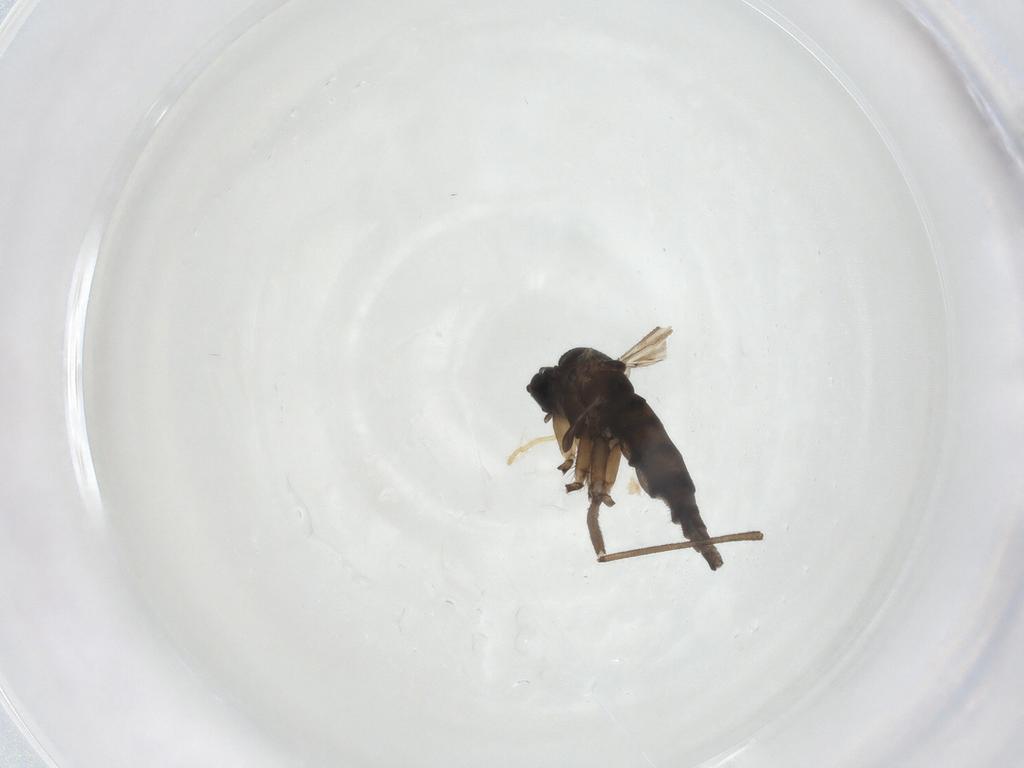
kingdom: Animalia
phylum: Arthropoda
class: Insecta
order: Diptera
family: Sciaridae
